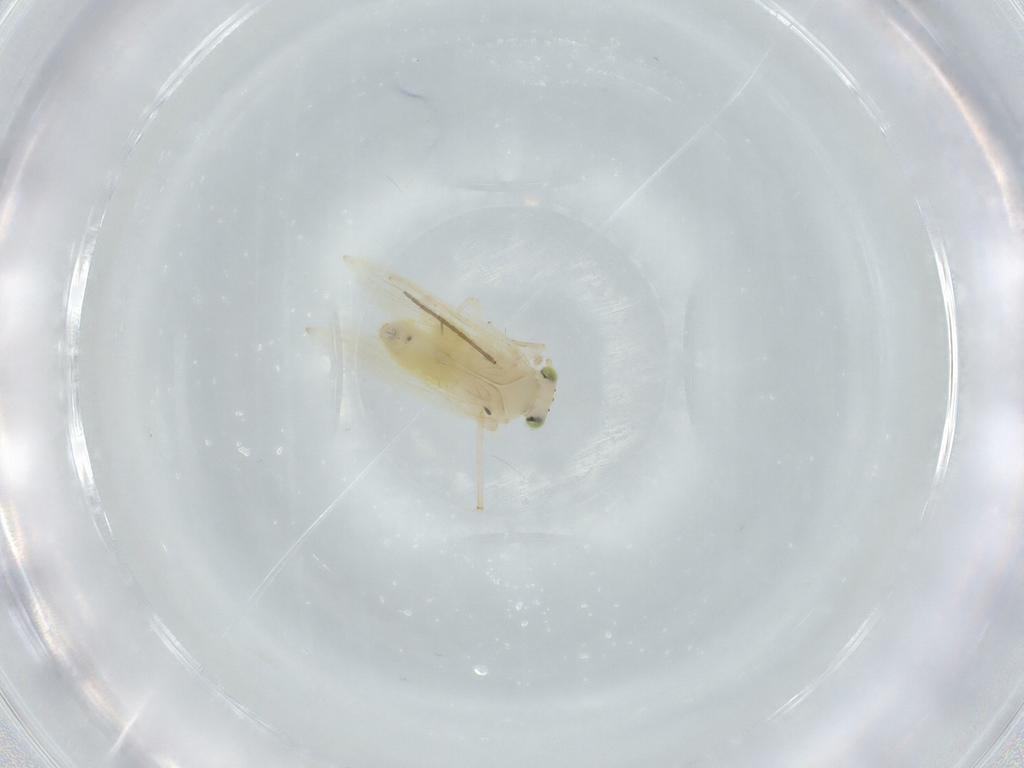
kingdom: Animalia
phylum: Arthropoda
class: Insecta
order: Psocodea
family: Lepidopsocidae
